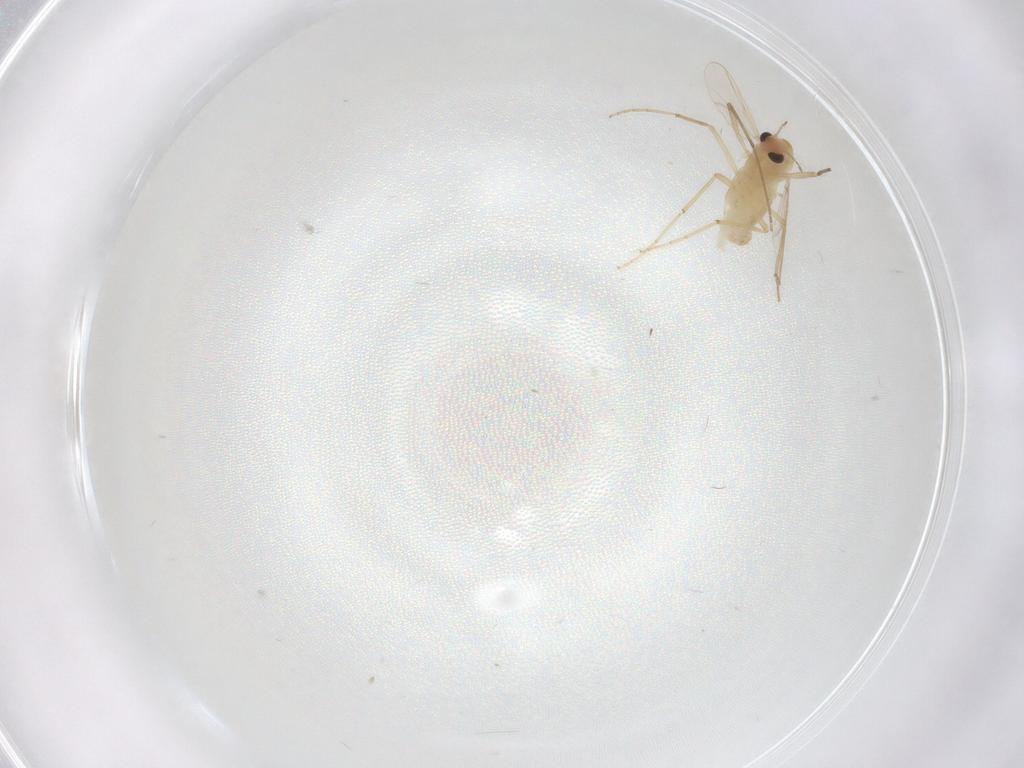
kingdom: Animalia
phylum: Arthropoda
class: Insecta
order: Diptera
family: Chironomidae
